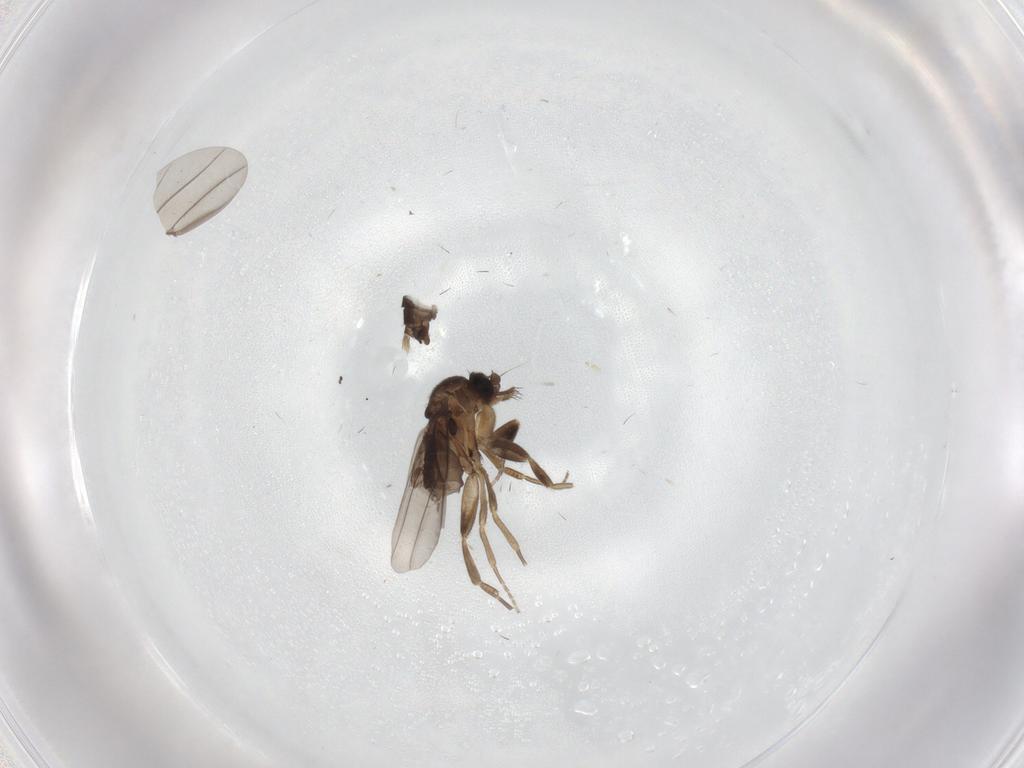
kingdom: Animalia
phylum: Arthropoda
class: Insecta
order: Diptera
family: Phoridae
